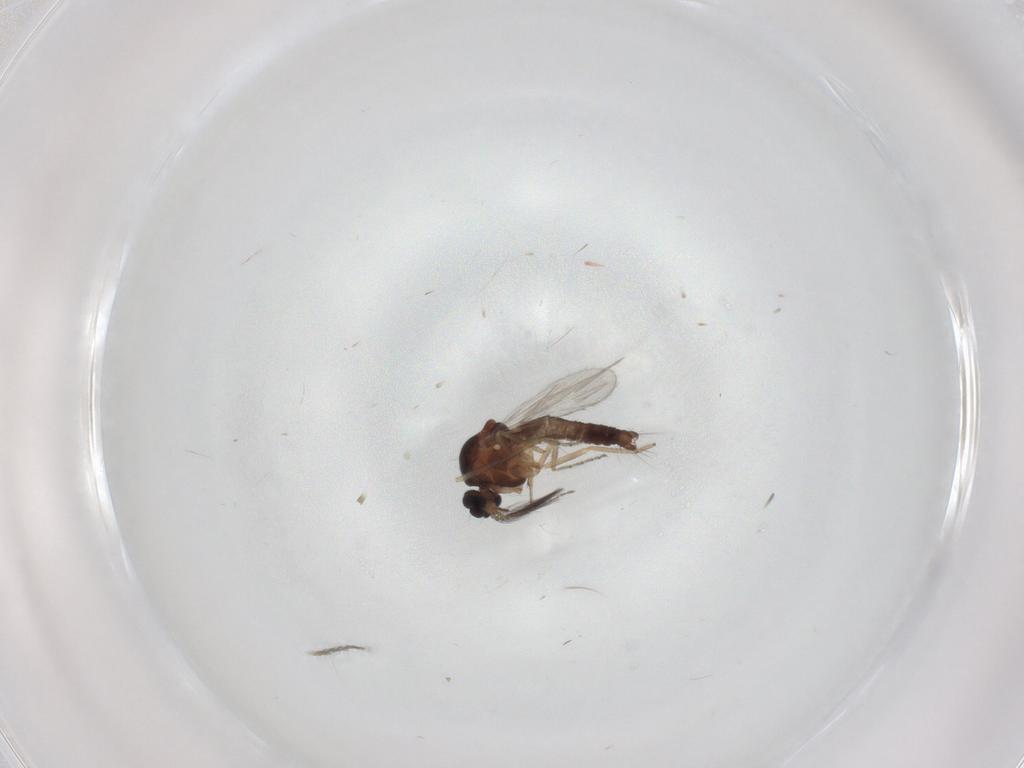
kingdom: Animalia
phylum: Arthropoda
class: Insecta
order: Diptera
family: Ceratopogonidae
